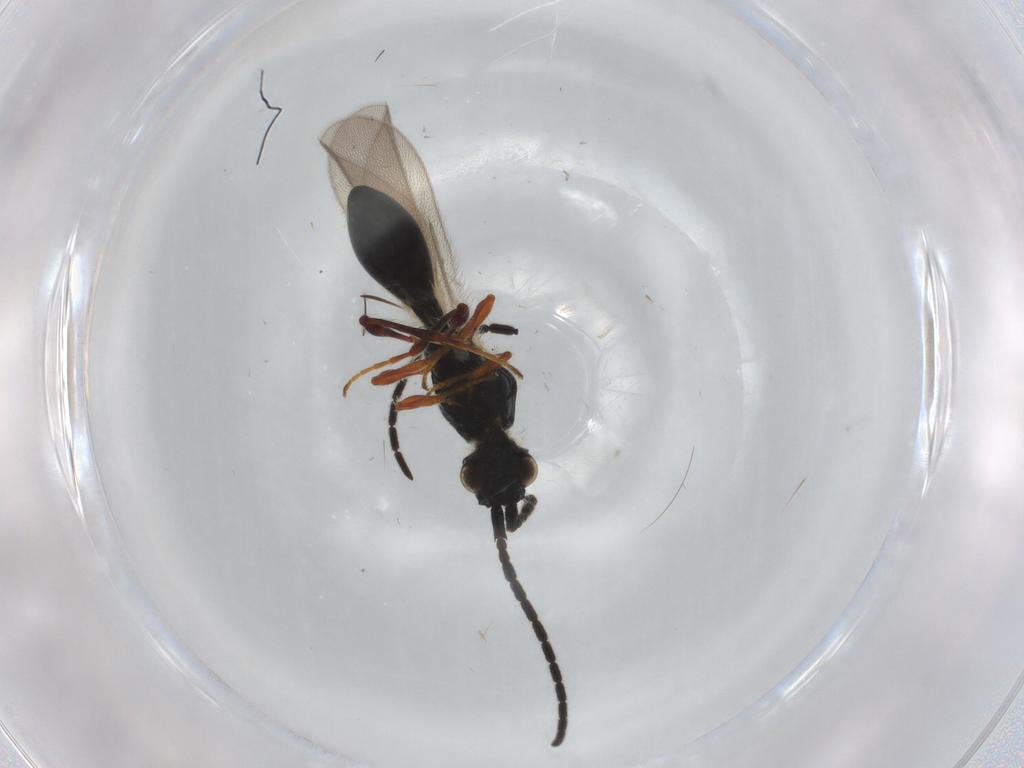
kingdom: Animalia
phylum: Arthropoda
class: Insecta
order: Hymenoptera
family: Diapriidae
